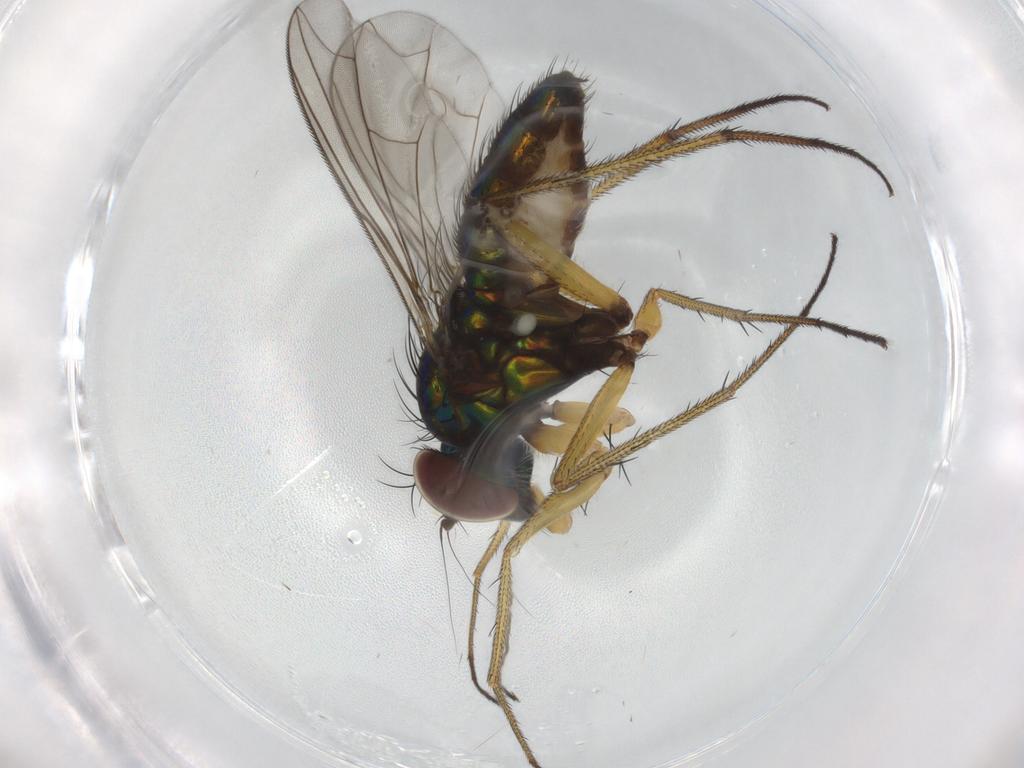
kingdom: Animalia
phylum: Arthropoda
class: Insecta
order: Diptera
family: Dolichopodidae
